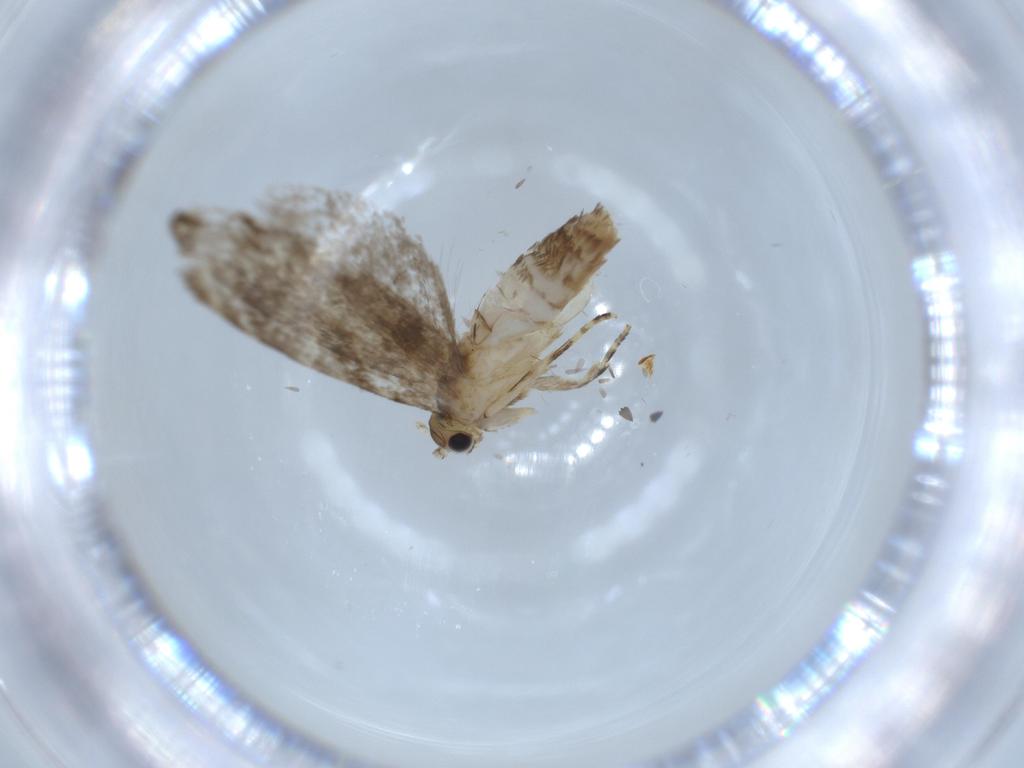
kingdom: Animalia
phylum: Arthropoda
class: Insecta
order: Lepidoptera
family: Tineidae
